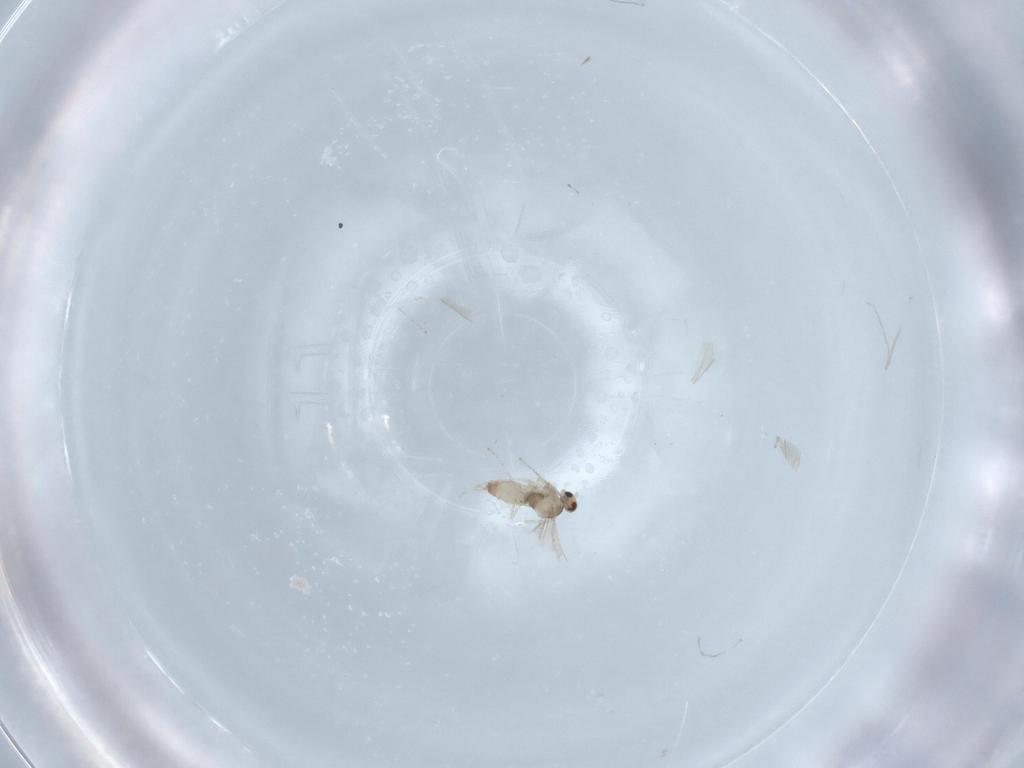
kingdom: Animalia
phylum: Arthropoda
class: Insecta
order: Diptera
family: Cecidomyiidae
